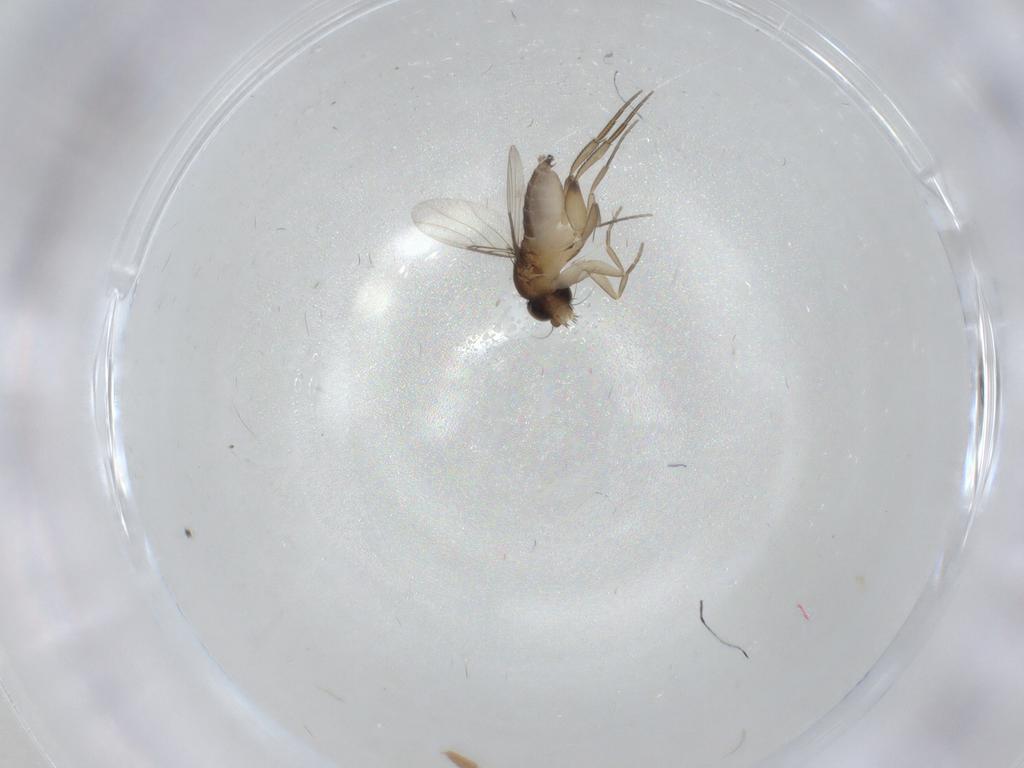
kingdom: Animalia
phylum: Arthropoda
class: Insecta
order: Diptera
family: Phoridae
